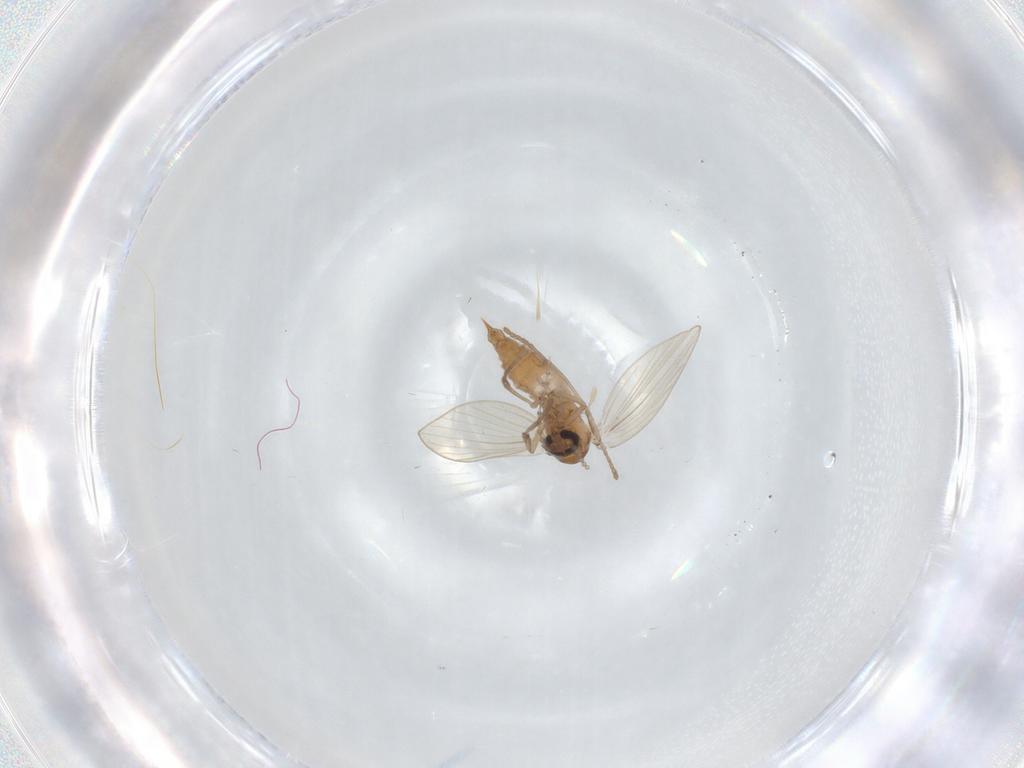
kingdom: Animalia
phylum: Arthropoda
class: Insecta
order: Diptera
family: Psychodidae
